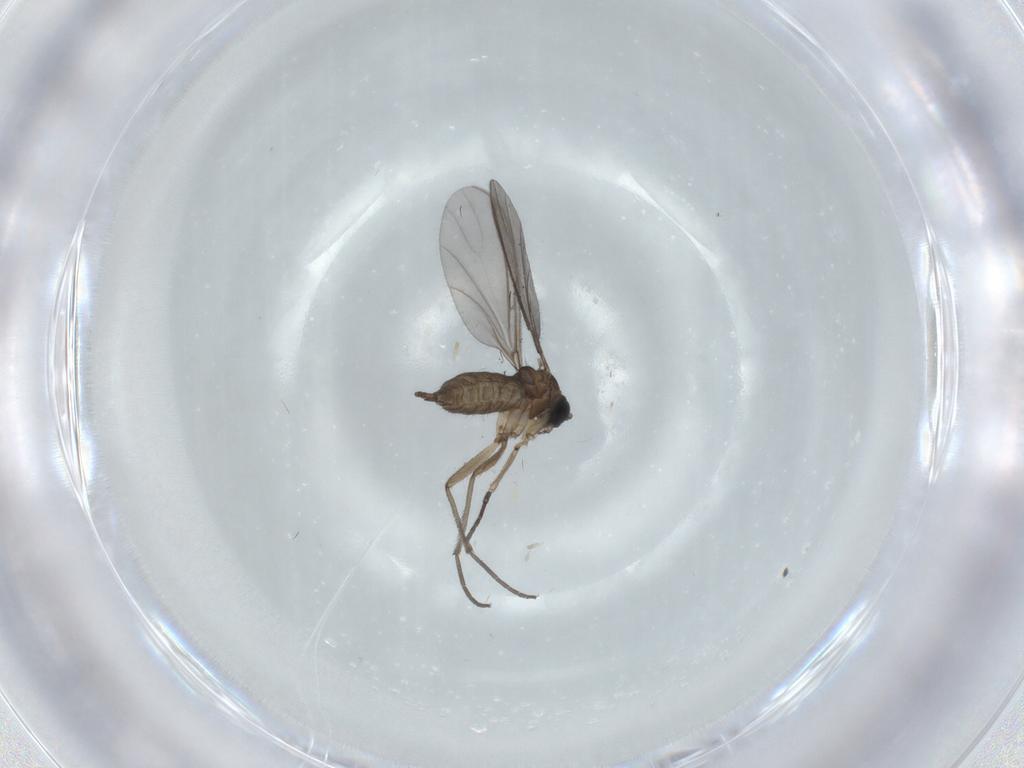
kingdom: Animalia
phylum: Arthropoda
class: Insecta
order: Diptera
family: Sciaridae
